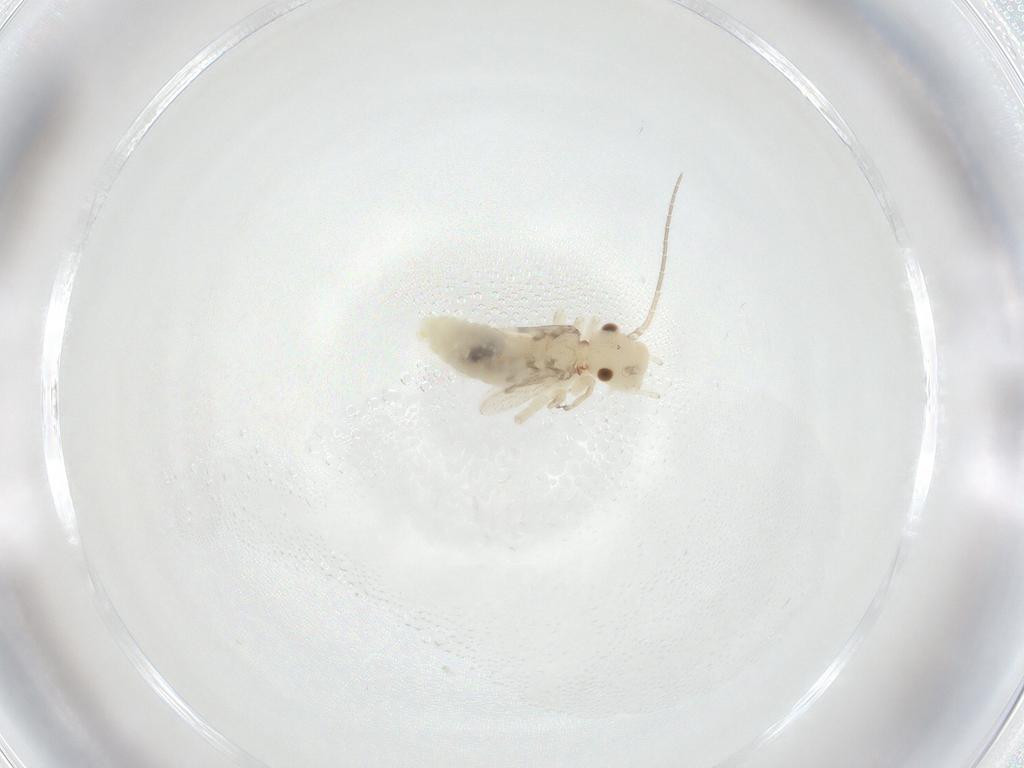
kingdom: Animalia
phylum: Arthropoda
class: Insecta
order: Psocodea
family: Caeciliusidae
